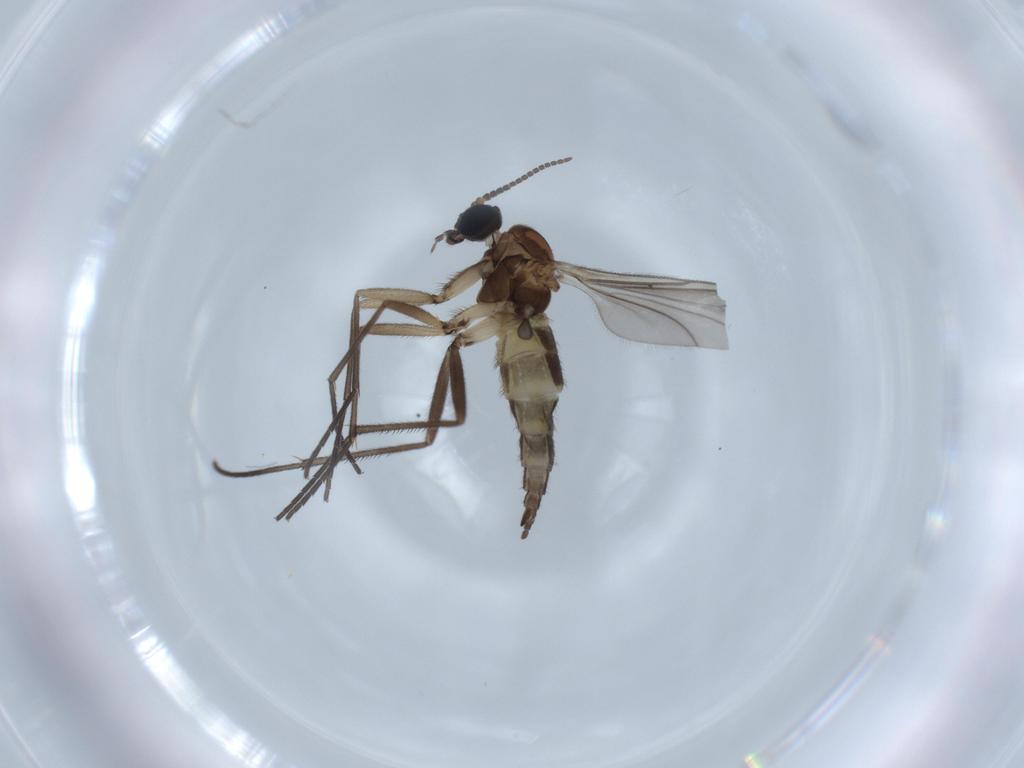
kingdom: Animalia
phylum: Arthropoda
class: Insecta
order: Diptera
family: Sciaridae
